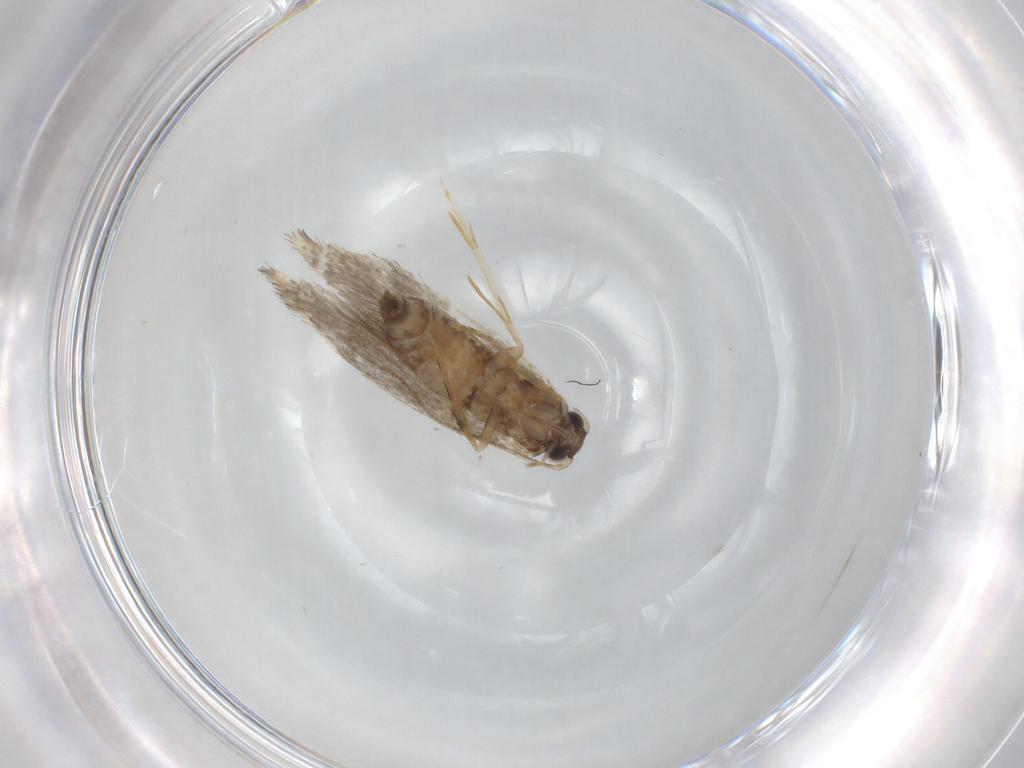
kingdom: Animalia
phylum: Arthropoda
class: Insecta
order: Lepidoptera
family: Tineidae
